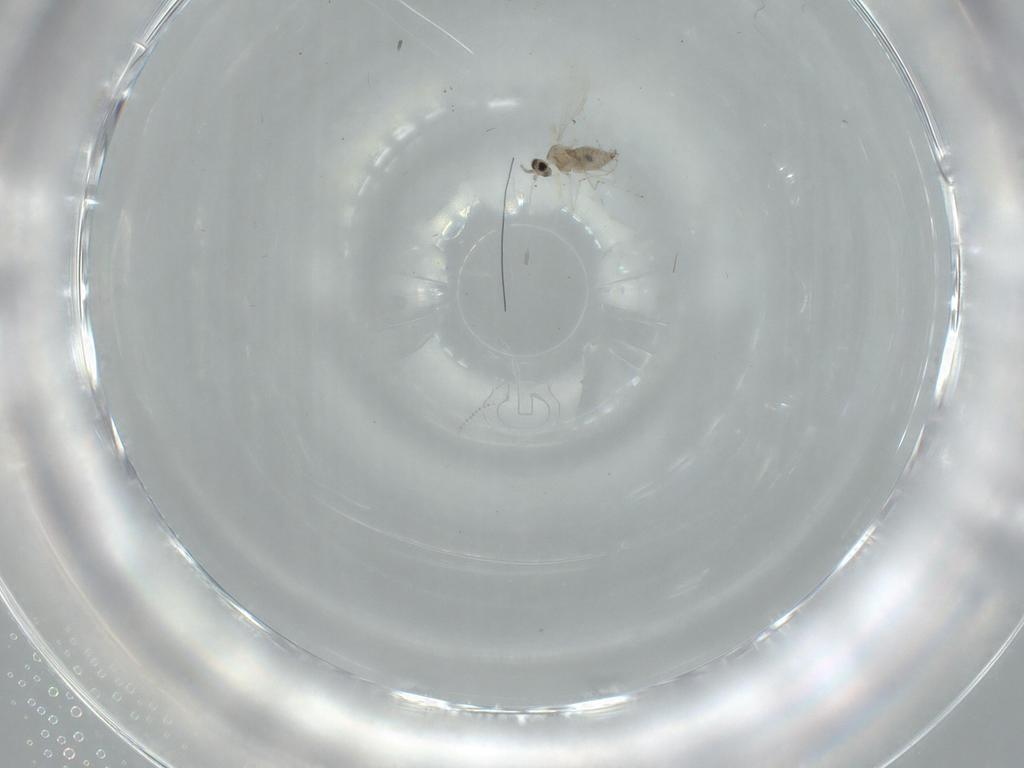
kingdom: Animalia
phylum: Arthropoda
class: Insecta
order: Diptera
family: Cecidomyiidae
